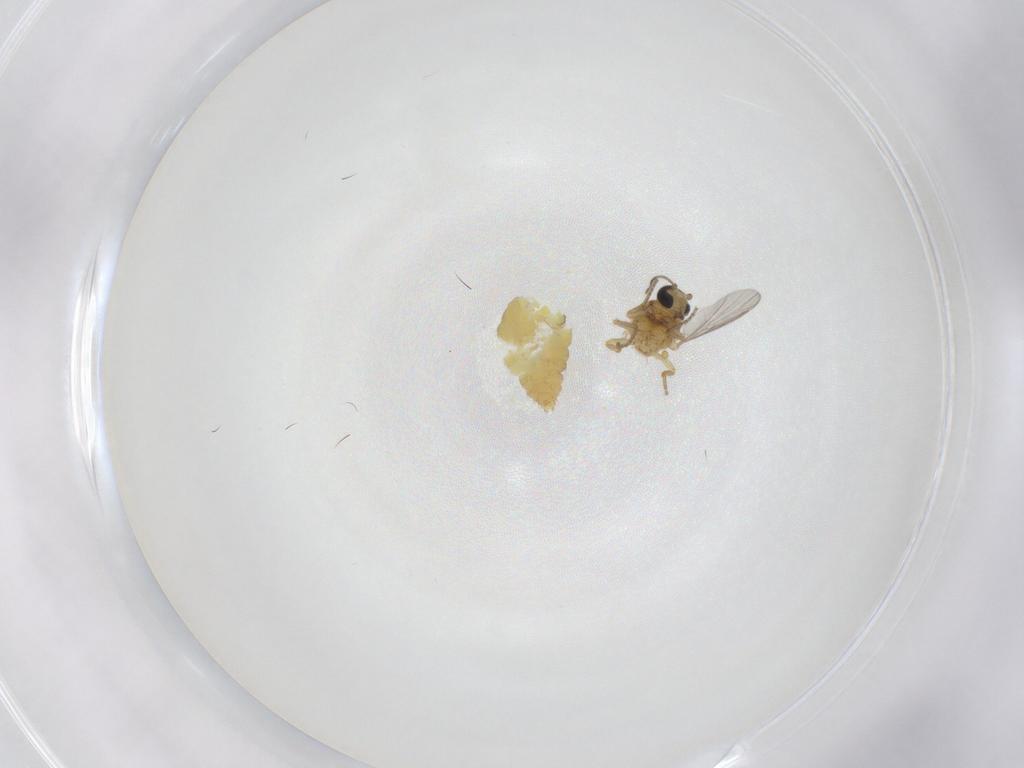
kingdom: Animalia
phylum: Arthropoda
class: Insecta
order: Diptera
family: Ceratopogonidae
